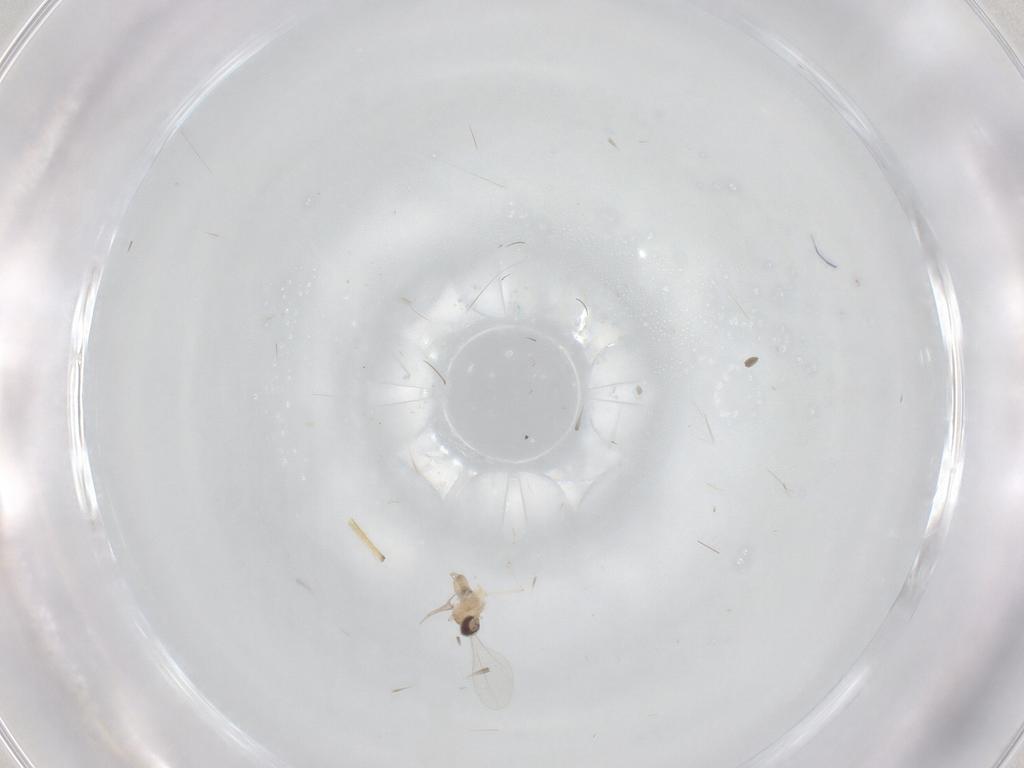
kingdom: Animalia
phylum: Arthropoda
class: Insecta
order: Diptera
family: Cecidomyiidae
